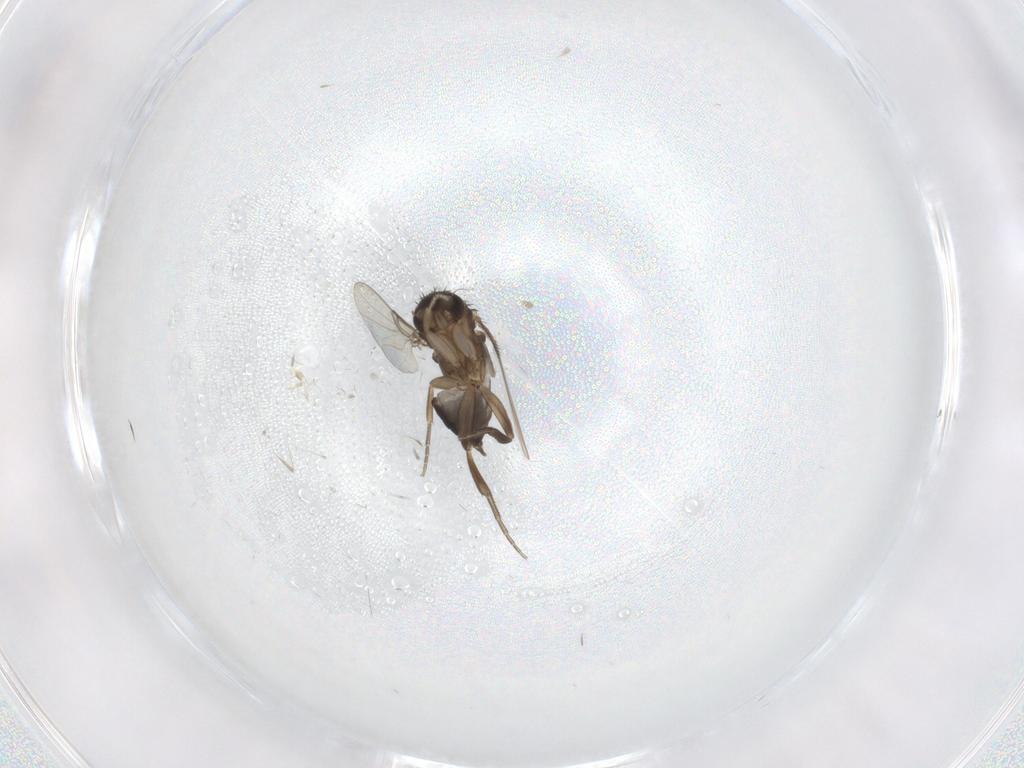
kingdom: Animalia
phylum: Arthropoda
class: Insecta
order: Diptera
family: Phoridae
